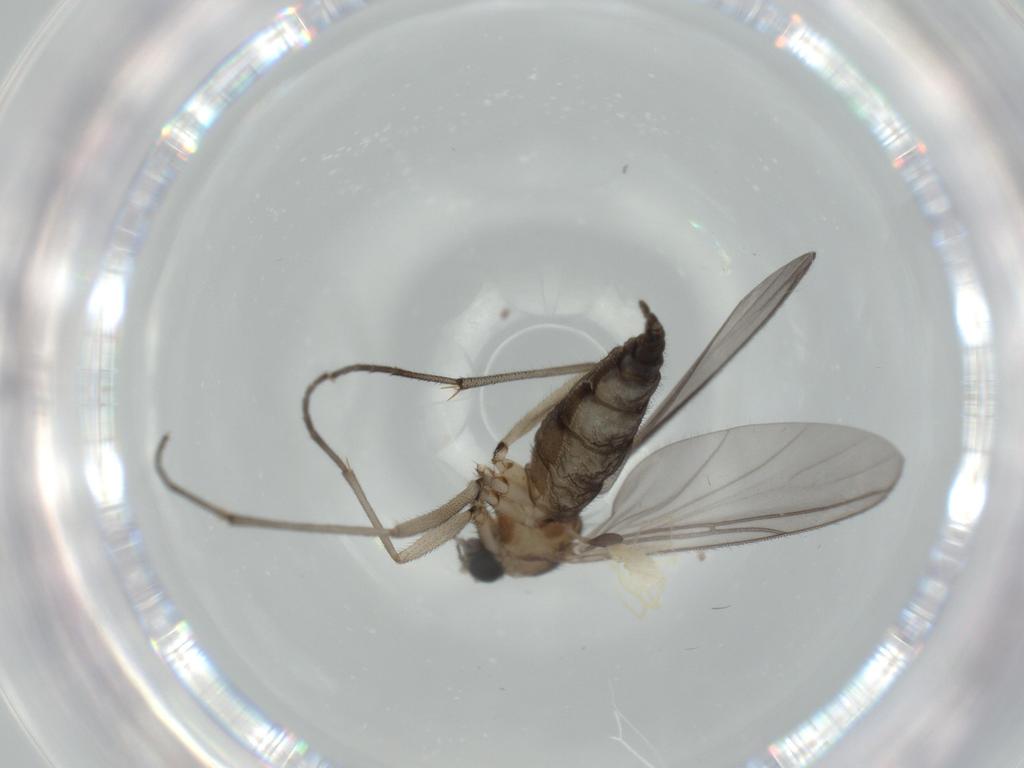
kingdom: Animalia
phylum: Arthropoda
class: Insecta
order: Diptera
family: Sciaridae
